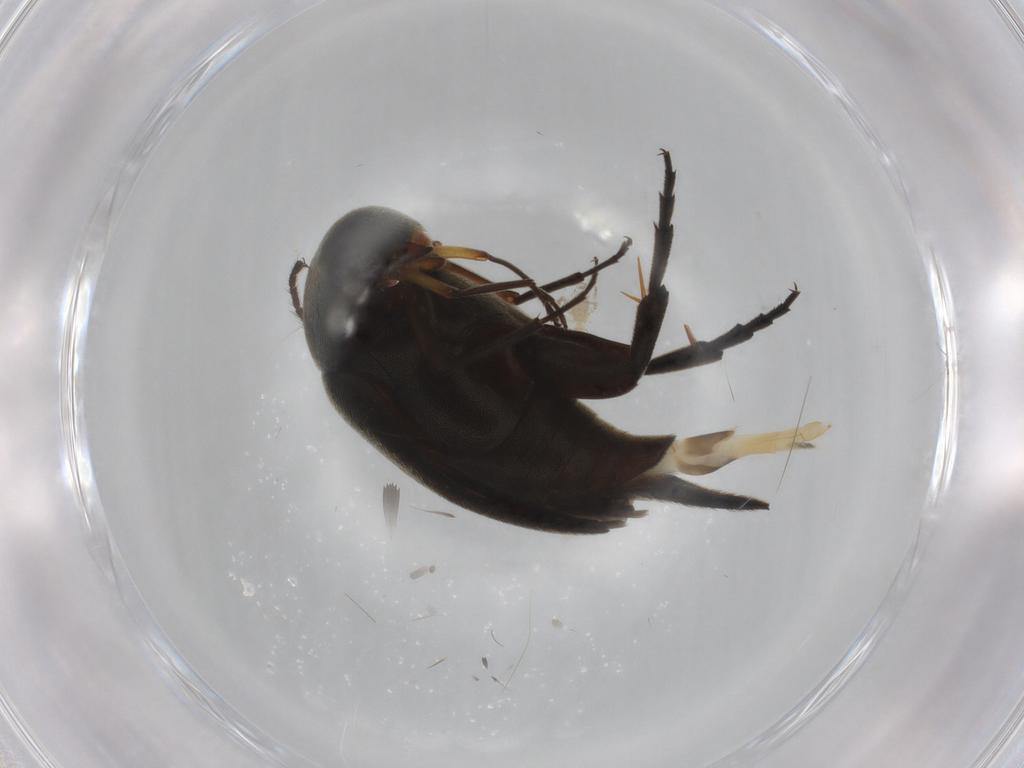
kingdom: Animalia
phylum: Arthropoda
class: Insecta
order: Coleoptera
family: Mordellidae
